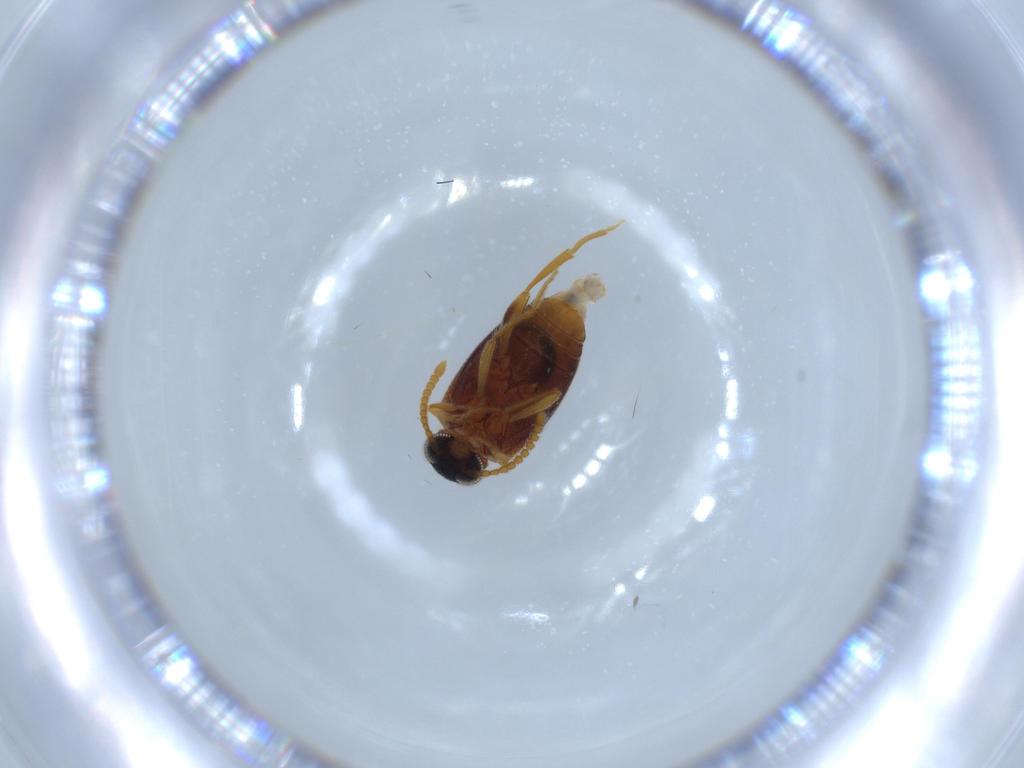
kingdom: Animalia
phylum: Arthropoda
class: Insecta
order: Coleoptera
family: Aderidae
